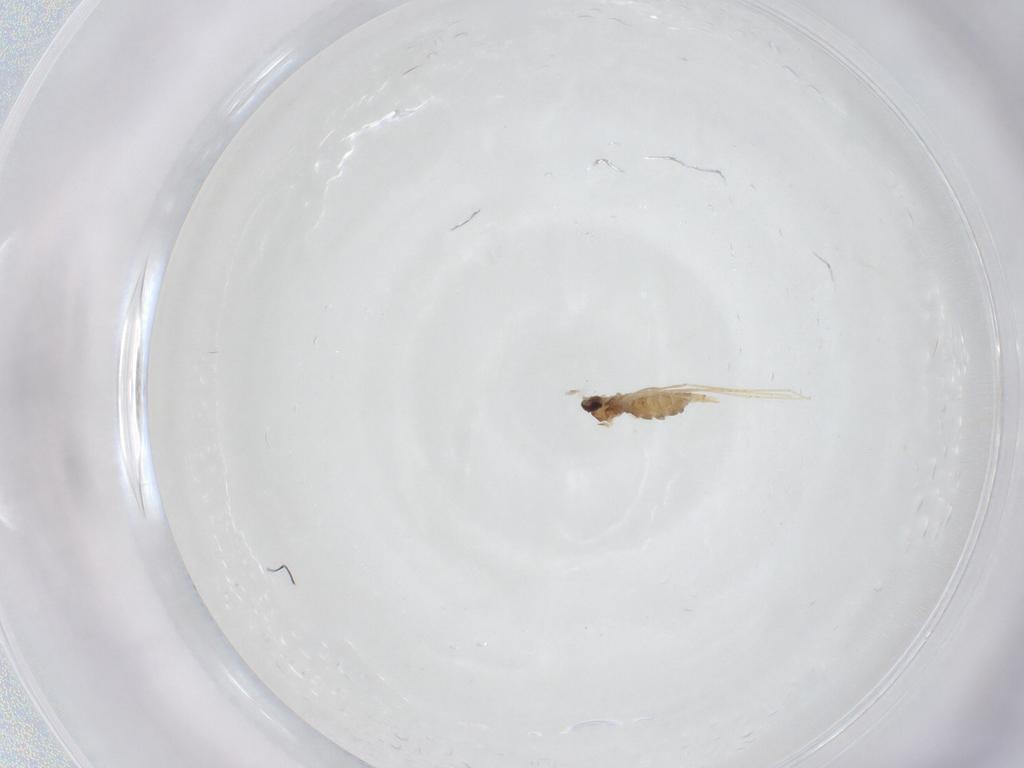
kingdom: Animalia
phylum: Arthropoda
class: Insecta
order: Diptera
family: Cecidomyiidae
